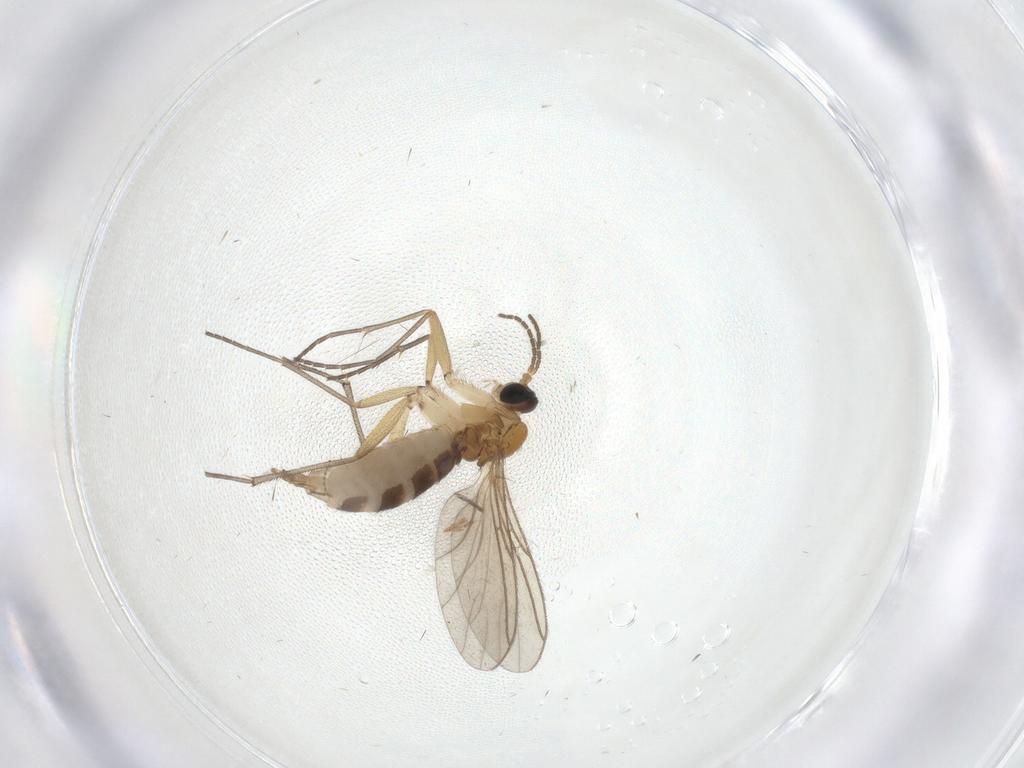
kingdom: Animalia
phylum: Arthropoda
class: Insecta
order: Diptera
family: Sciaridae
